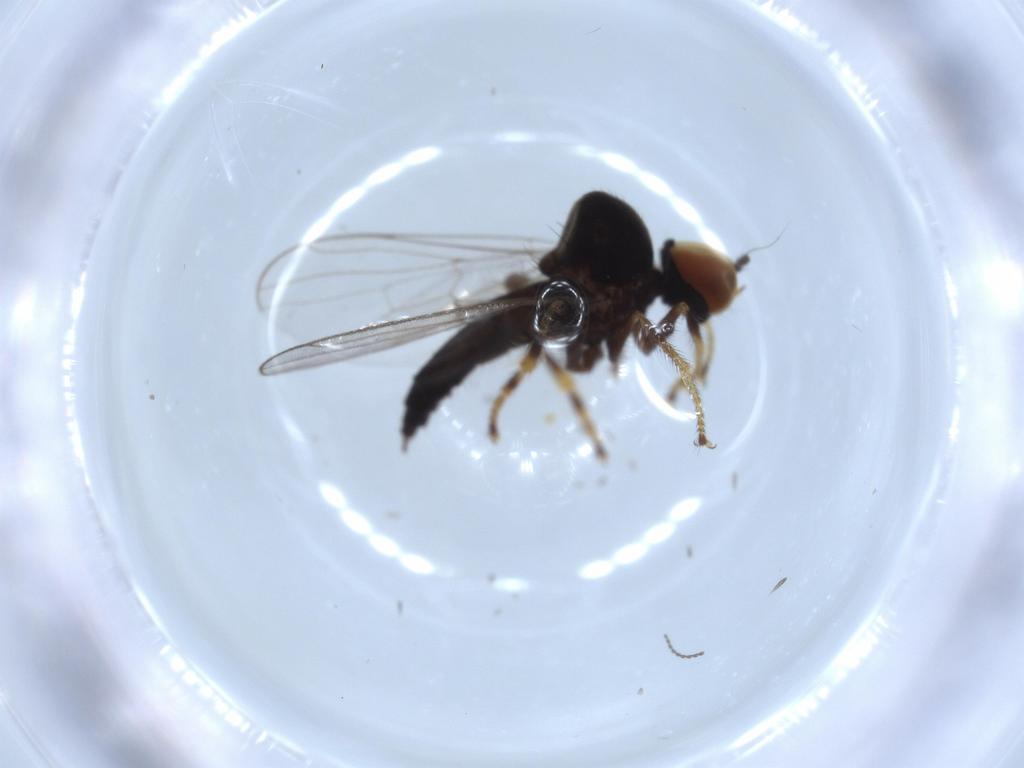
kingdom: Animalia
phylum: Arthropoda
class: Insecta
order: Diptera
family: Hybotidae
